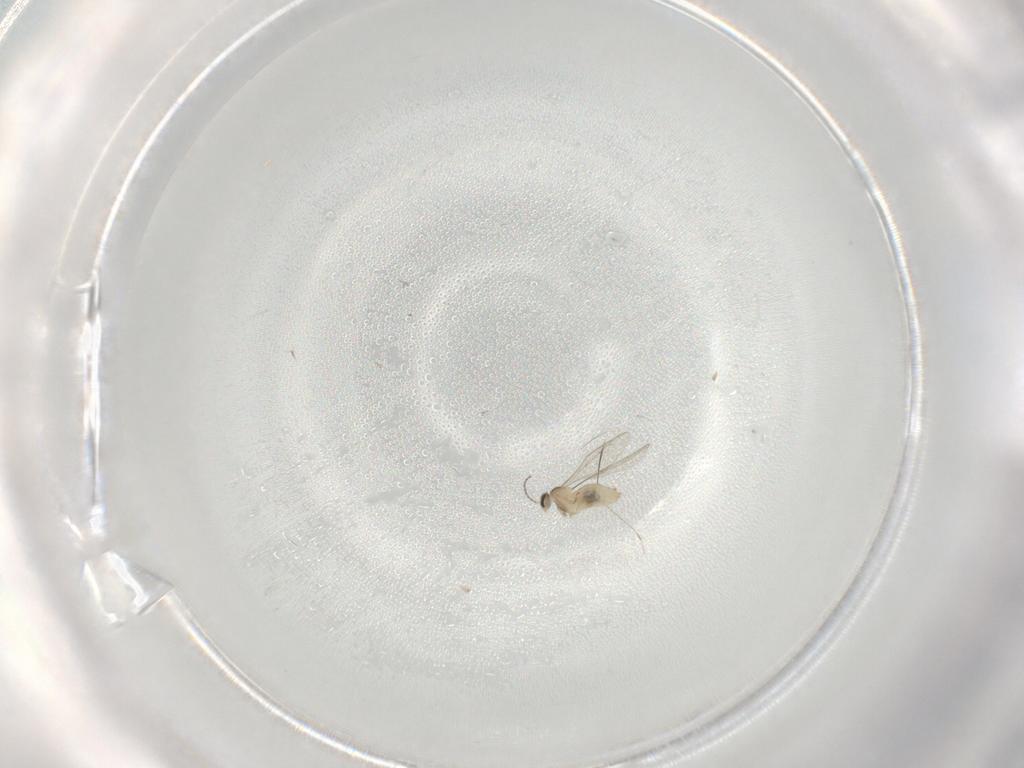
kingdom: Animalia
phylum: Arthropoda
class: Insecta
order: Diptera
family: Cecidomyiidae
